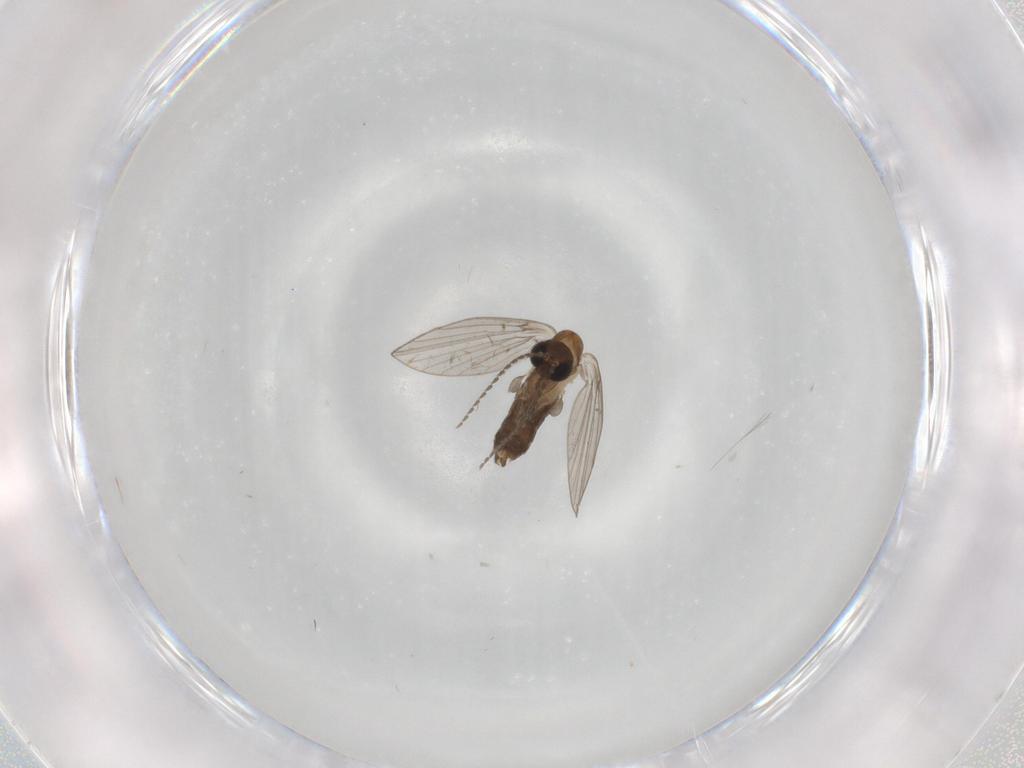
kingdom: Animalia
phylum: Arthropoda
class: Insecta
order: Diptera
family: Psychodidae
